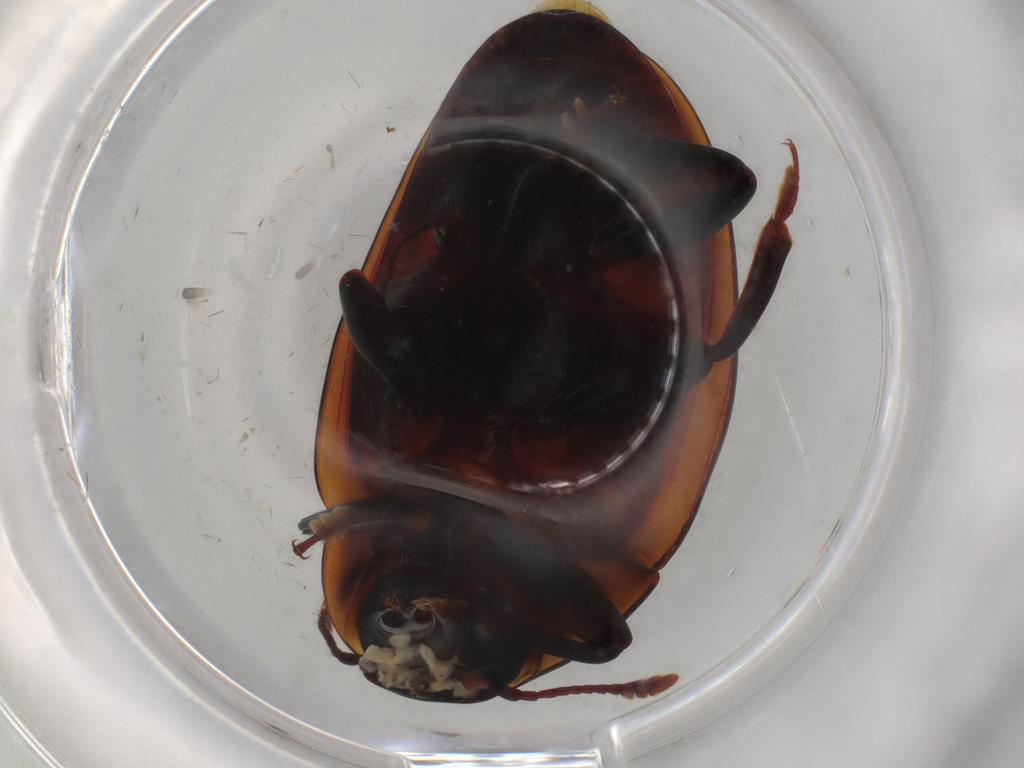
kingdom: Animalia
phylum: Arthropoda
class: Insecta
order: Coleoptera
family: Zopheridae
